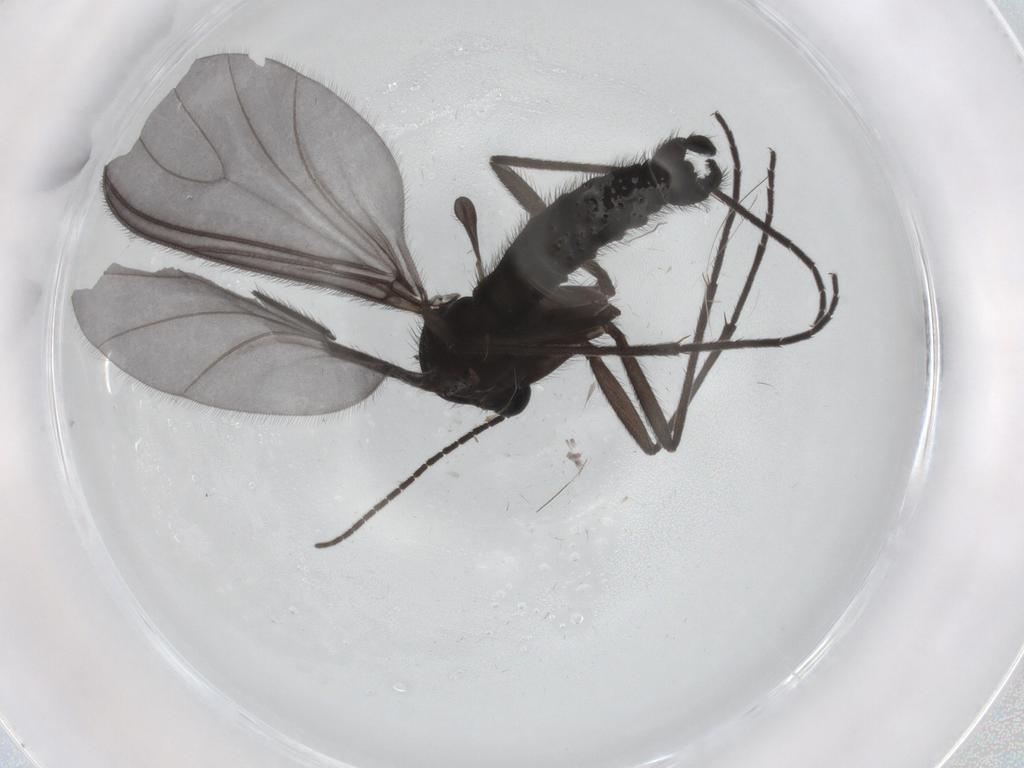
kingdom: Animalia
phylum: Arthropoda
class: Insecta
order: Diptera
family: Sciaridae
